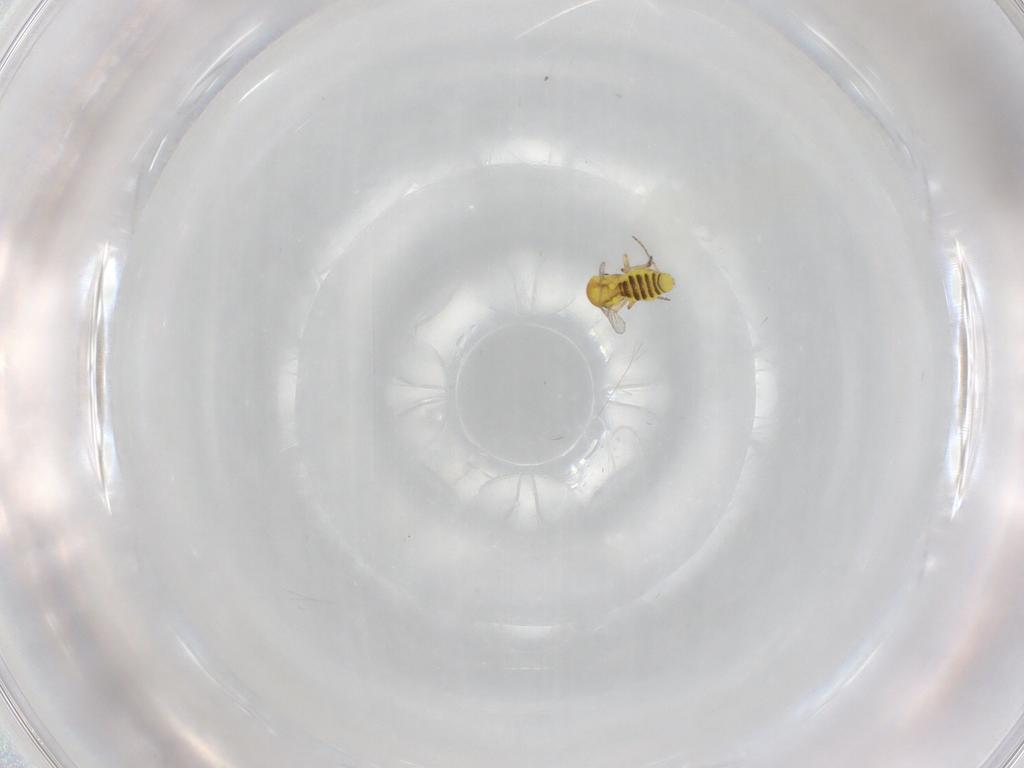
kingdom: Animalia
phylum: Arthropoda
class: Insecta
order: Diptera
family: Ceratopogonidae
